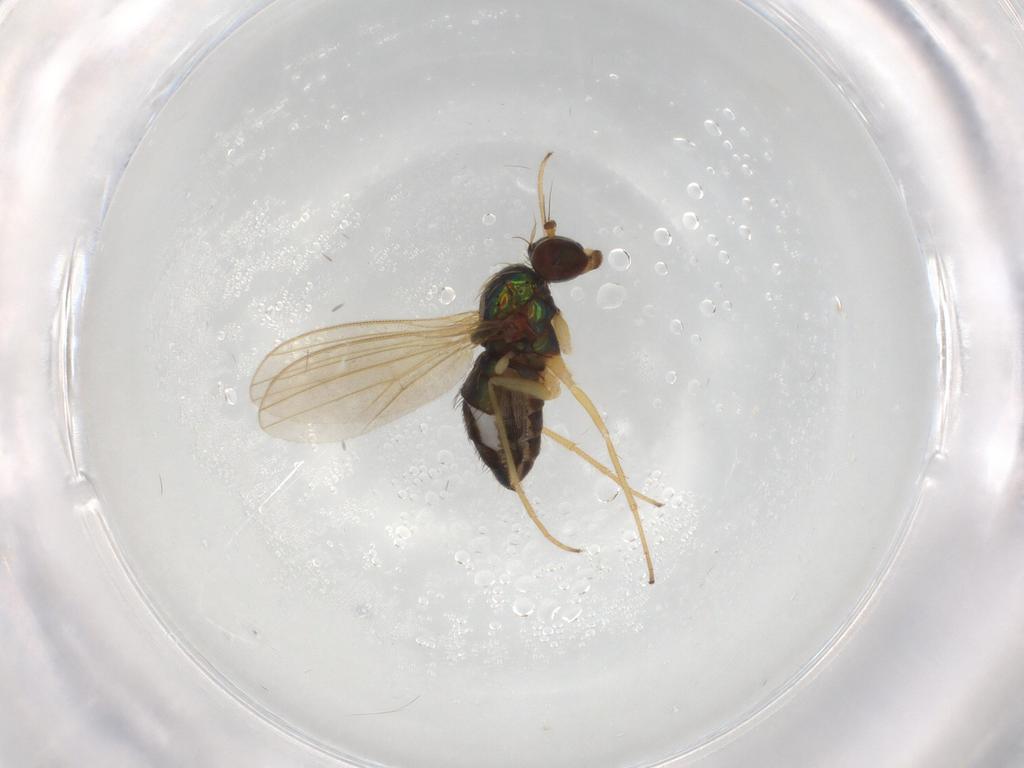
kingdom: Animalia
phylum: Arthropoda
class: Insecta
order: Diptera
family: Dolichopodidae
